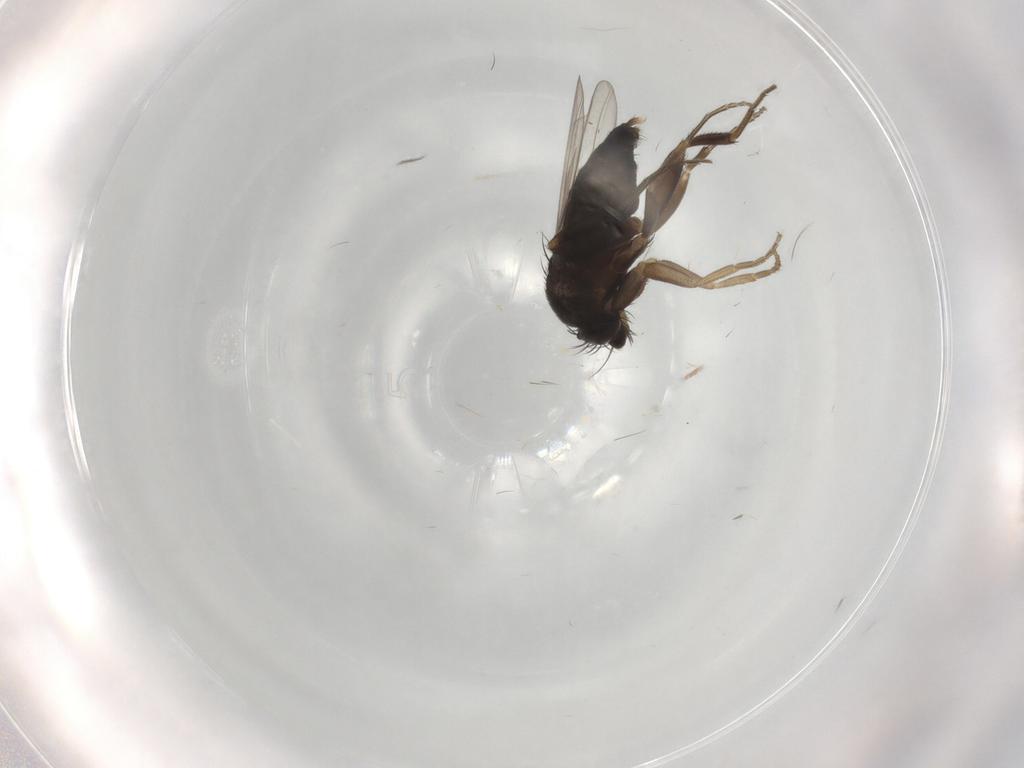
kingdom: Animalia
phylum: Arthropoda
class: Insecta
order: Diptera
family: Phoridae
